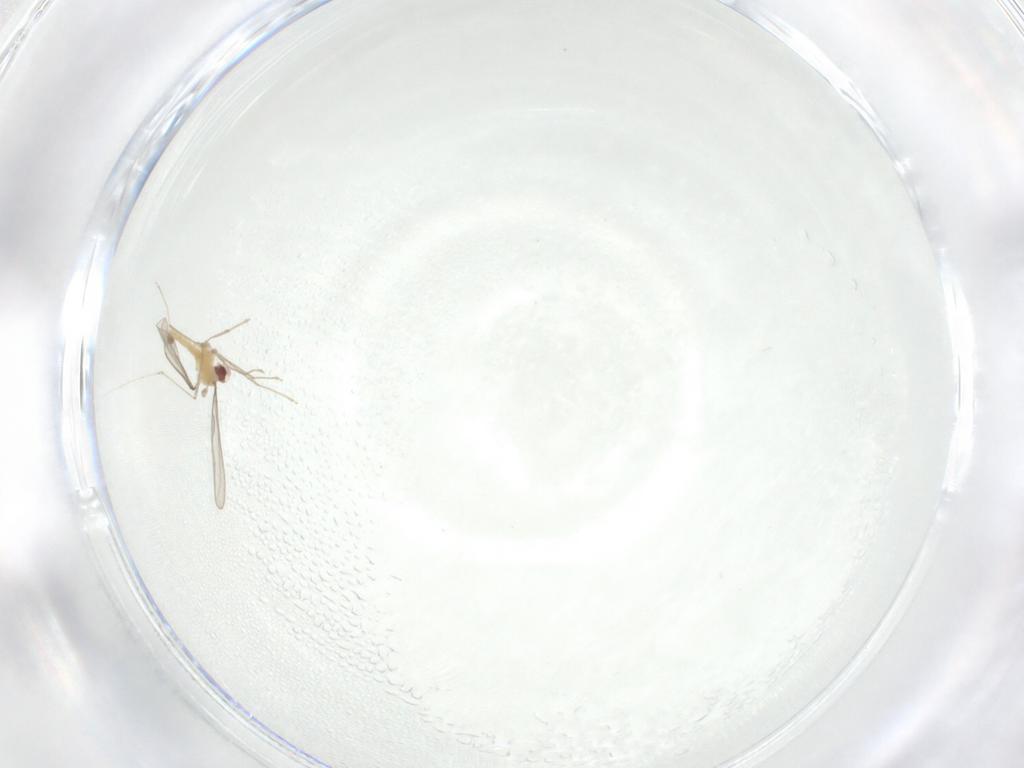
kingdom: Animalia
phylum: Arthropoda
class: Insecta
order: Diptera
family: Cecidomyiidae
